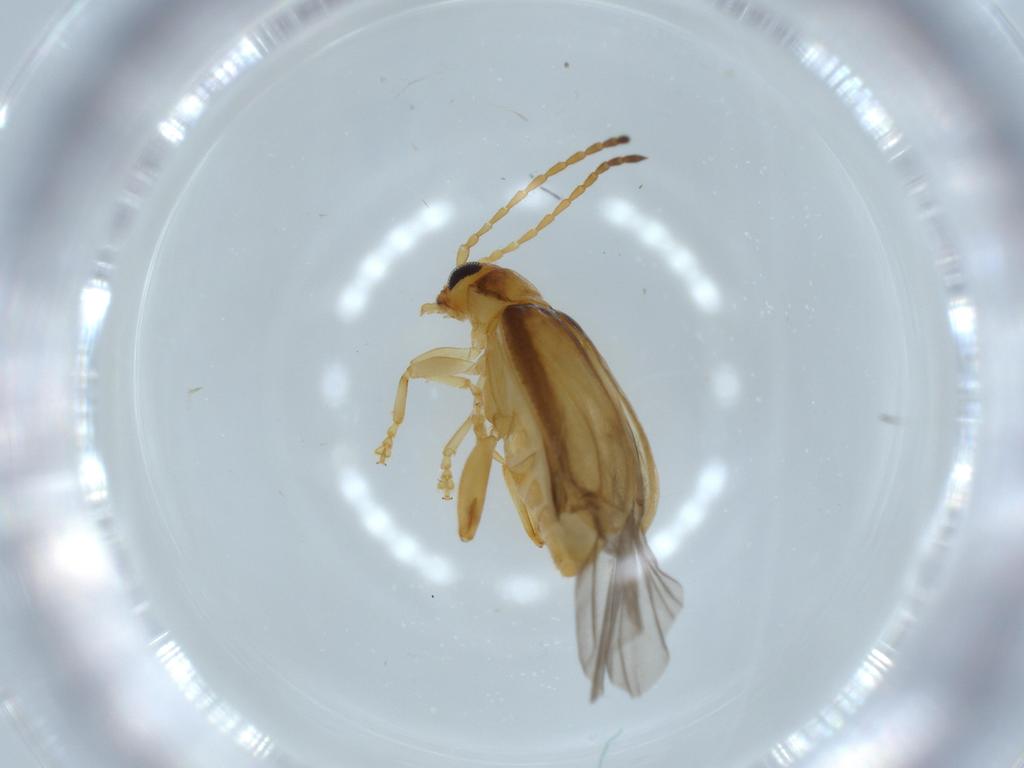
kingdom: Animalia
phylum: Arthropoda
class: Insecta
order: Coleoptera
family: Chrysomelidae
